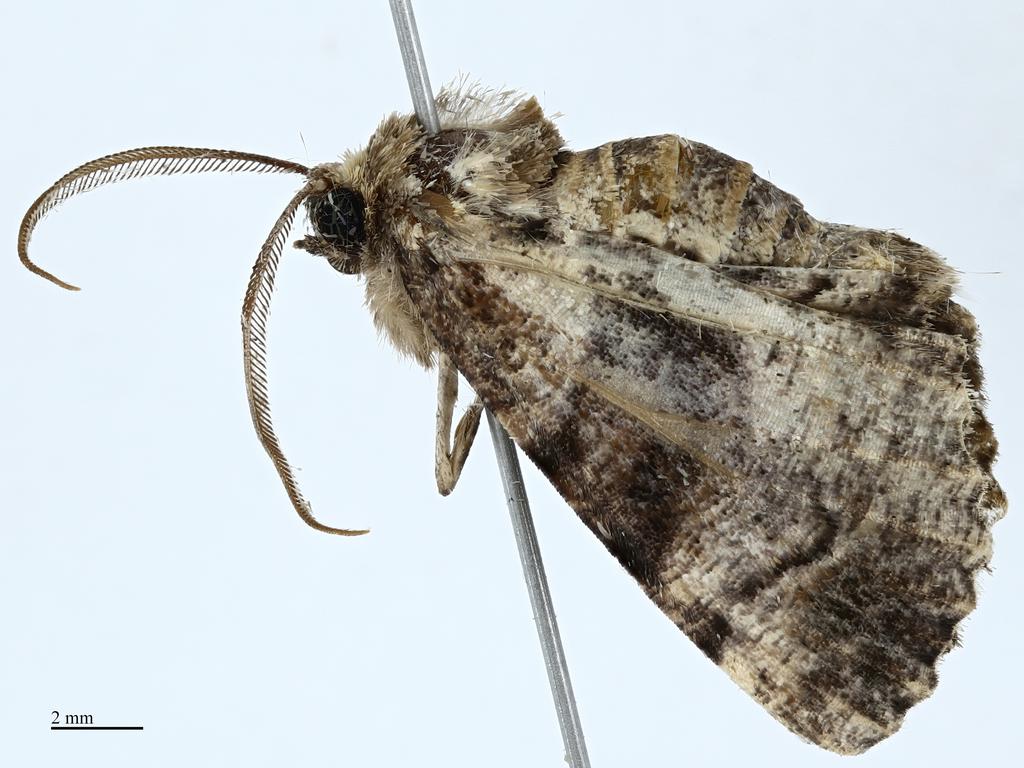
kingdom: Animalia
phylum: Arthropoda
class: Insecta
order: Lepidoptera
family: Geometridae
